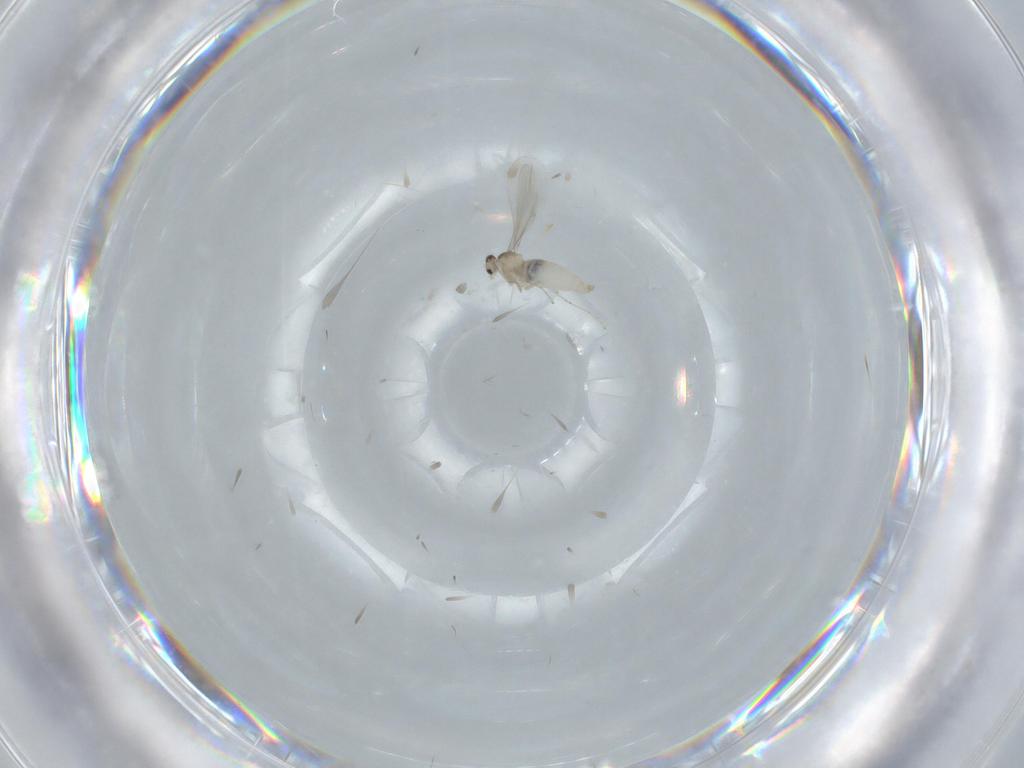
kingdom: Animalia
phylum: Arthropoda
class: Insecta
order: Diptera
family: Cecidomyiidae
